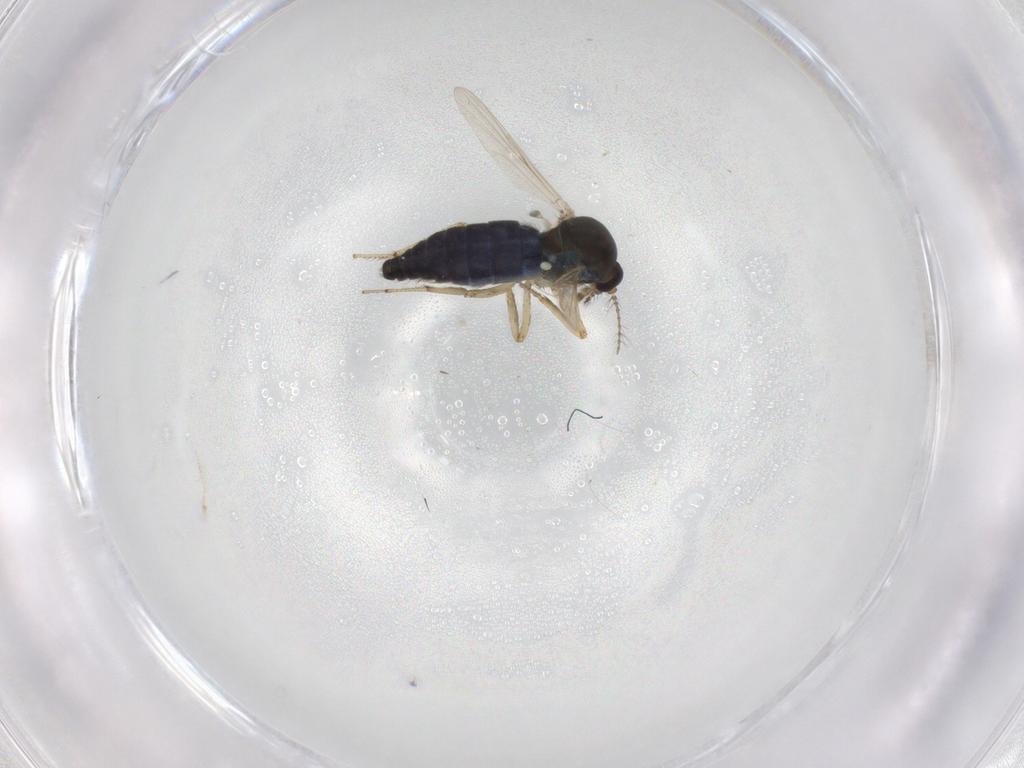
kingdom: Animalia
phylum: Arthropoda
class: Insecta
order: Diptera
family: Ceratopogonidae
